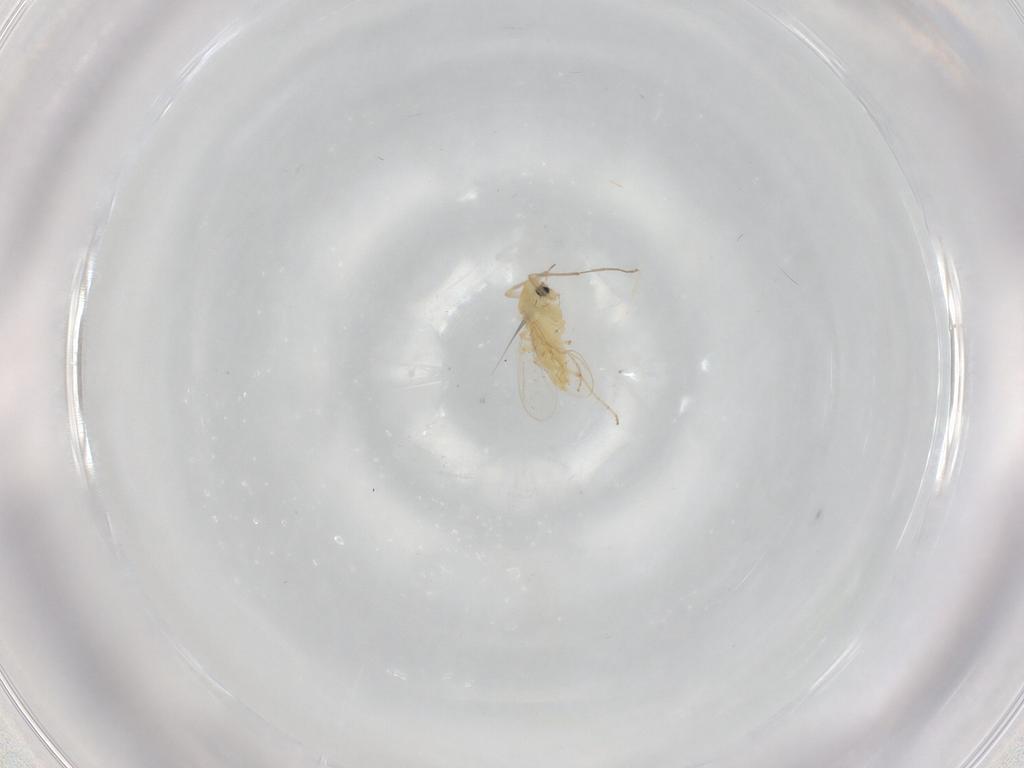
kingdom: Animalia
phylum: Arthropoda
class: Insecta
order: Diptera
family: Chironomidae
